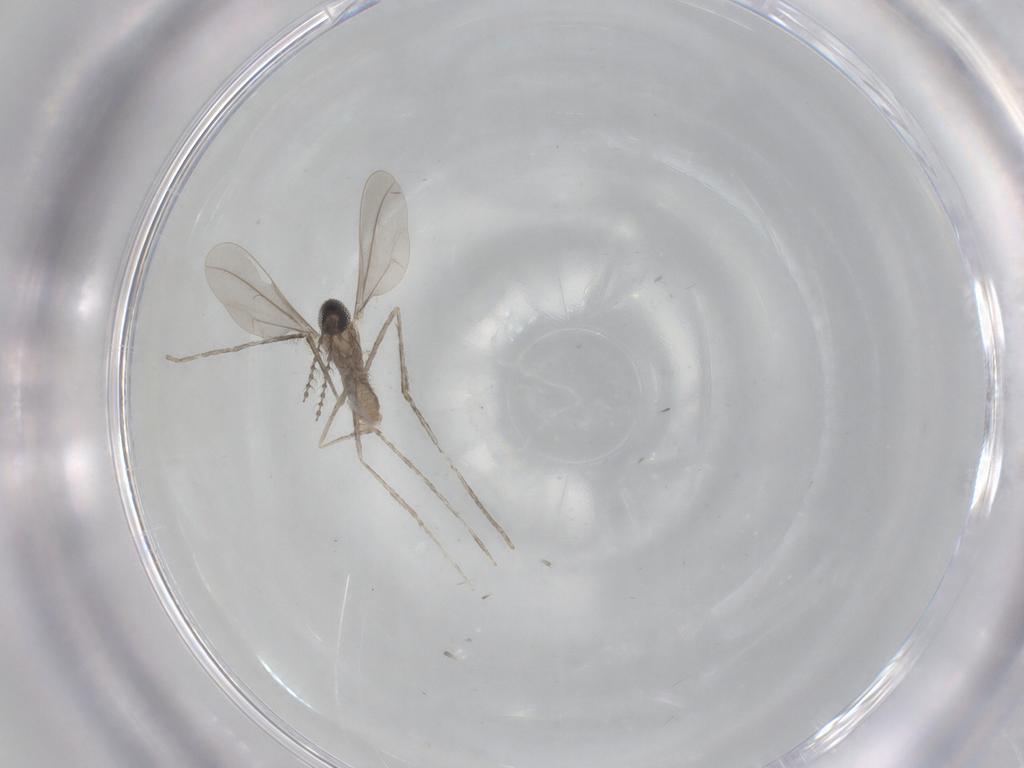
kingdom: Animalia
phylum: Arthropoda
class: Insecta
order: Diptera
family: Cecidomyiidae
